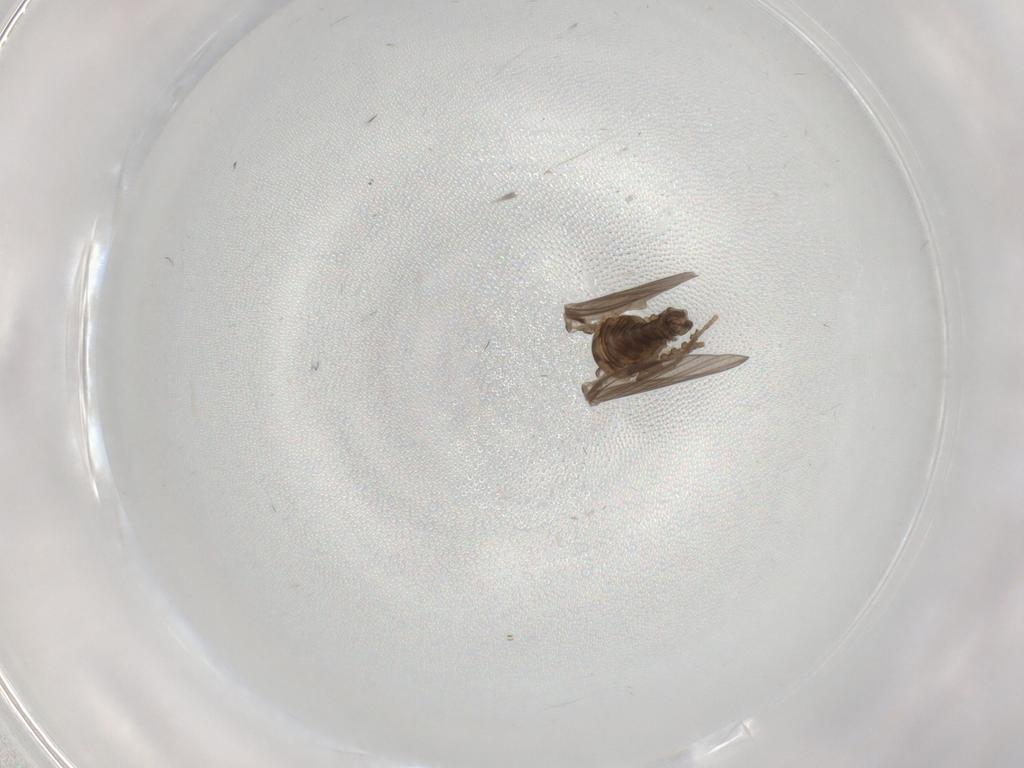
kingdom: Animalia
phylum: Arthropoda
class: Insecta
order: Diptera
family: Psychodidae
